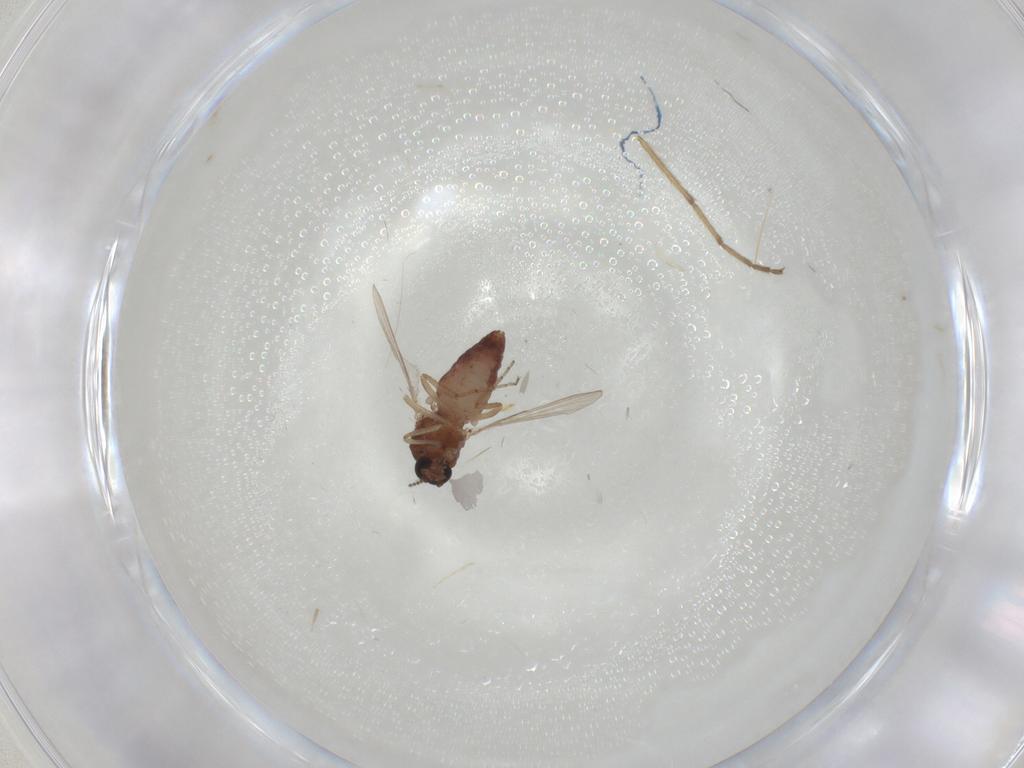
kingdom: Animalia
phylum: Arthropoda
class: Insecta
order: Diptera
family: Ceratopogonidae
